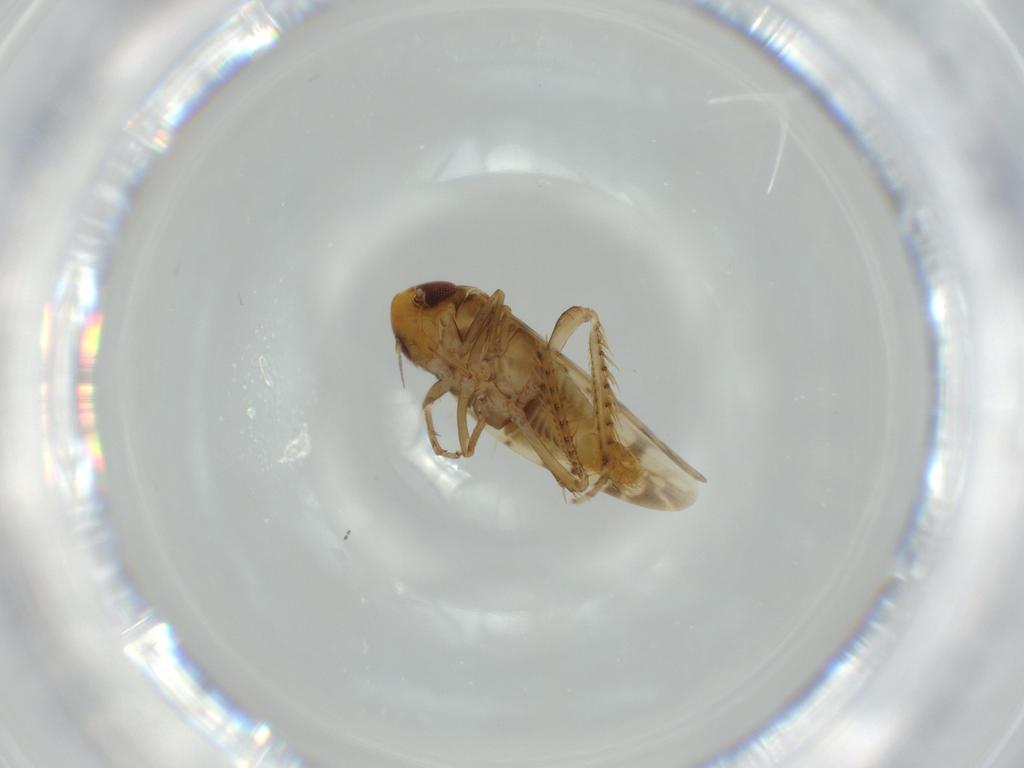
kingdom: Animalia
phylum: Arthropoda
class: Insecta
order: Hemiptera
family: Cicadellidae
